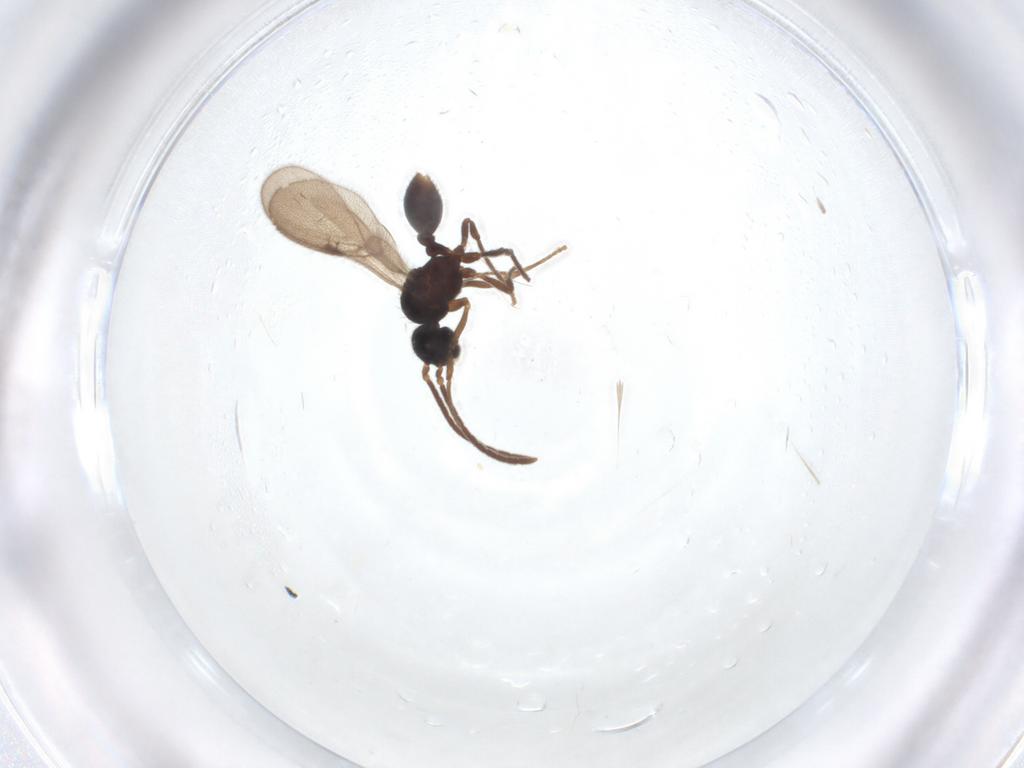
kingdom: Animalia
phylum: Arthropoda
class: Insecta
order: Hymenoptera
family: Formicidae
